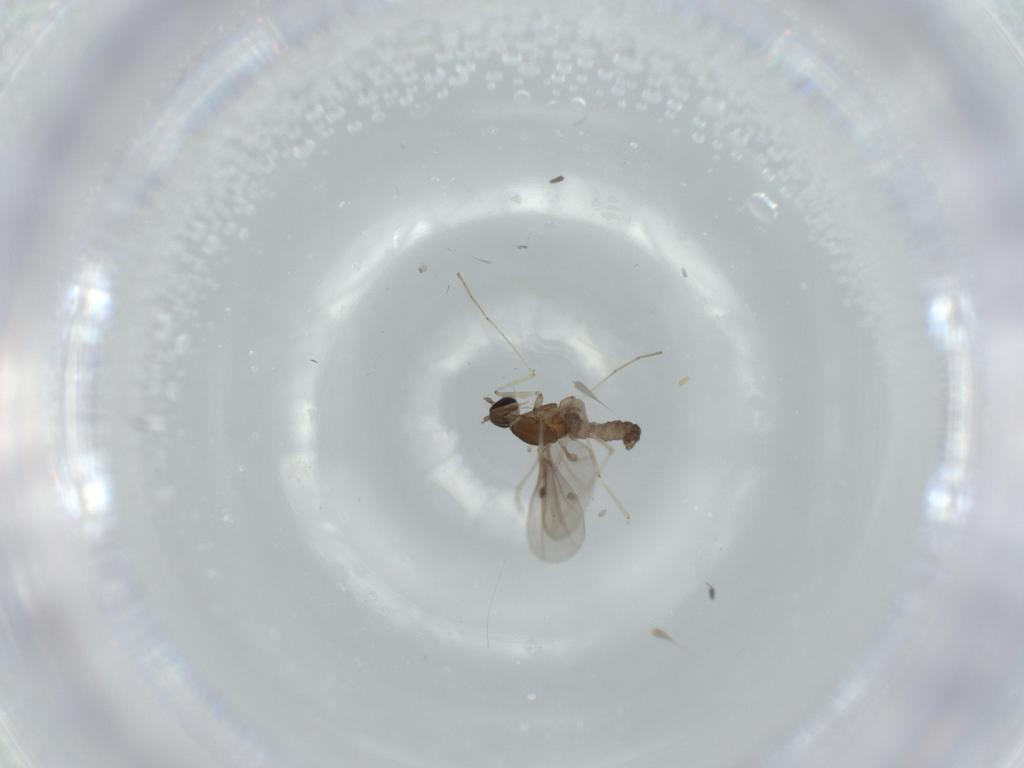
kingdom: Animalia
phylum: Arthropoda
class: Insecta
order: Diptera
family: Cecidomyiidae
